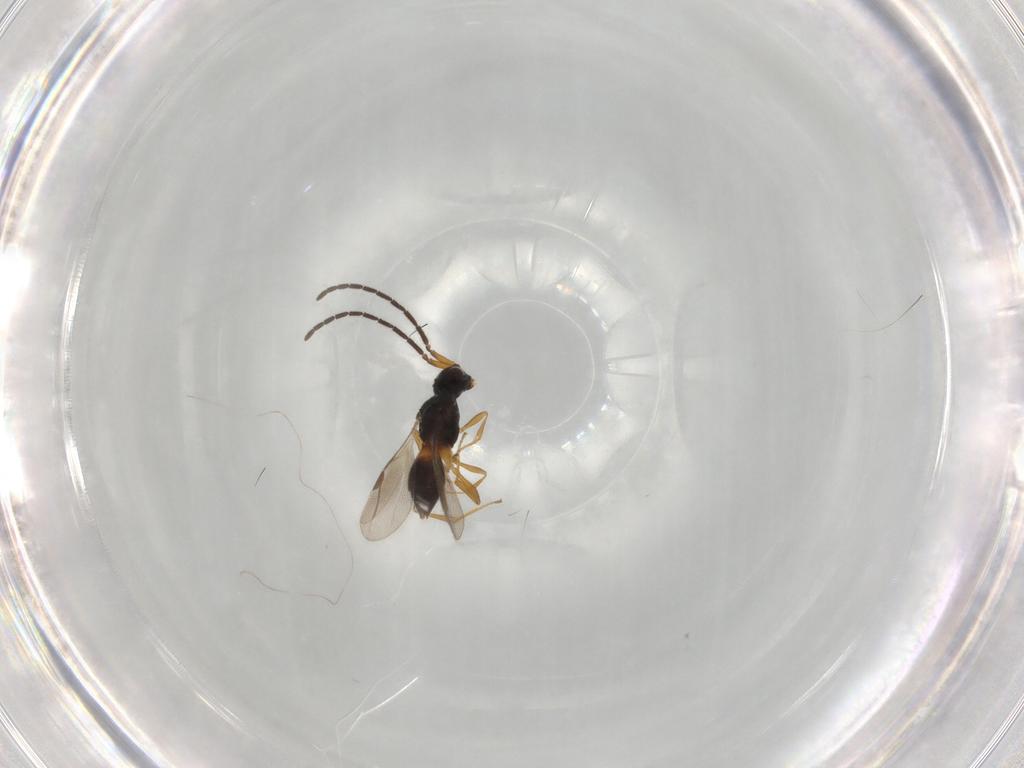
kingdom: Animalia
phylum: Arthropoda
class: Insecta
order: Hymenoptera
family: Megaspilidae
